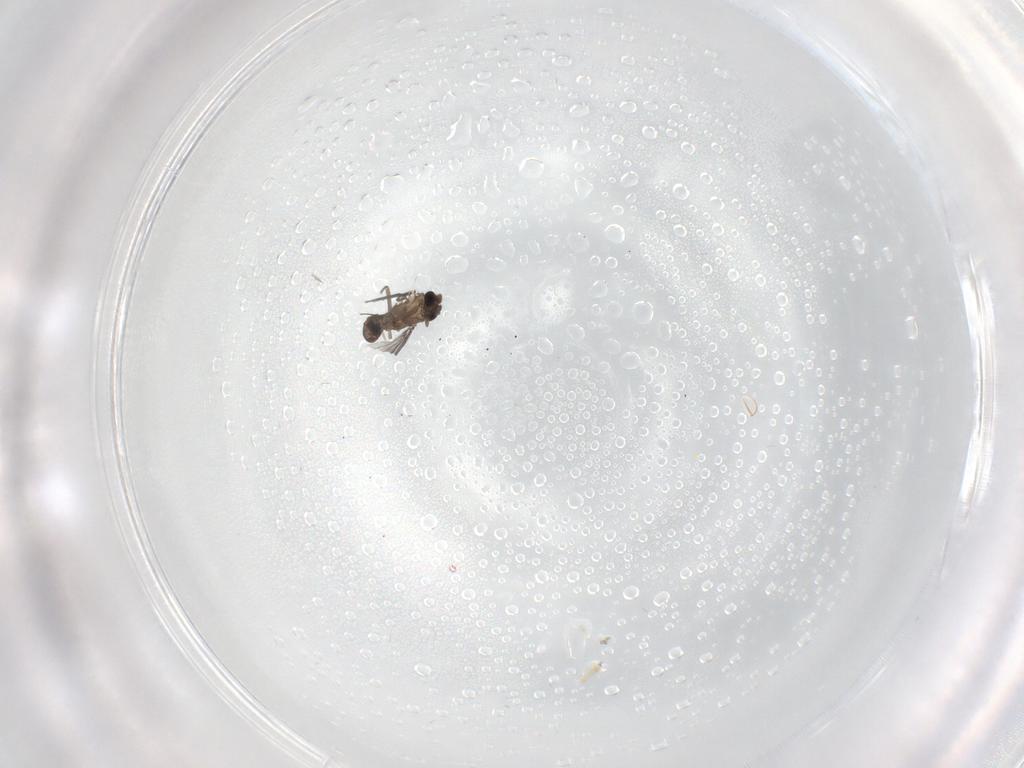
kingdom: Animalia
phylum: Arthropoda
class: Insecta
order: Diptera
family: Phoridae
